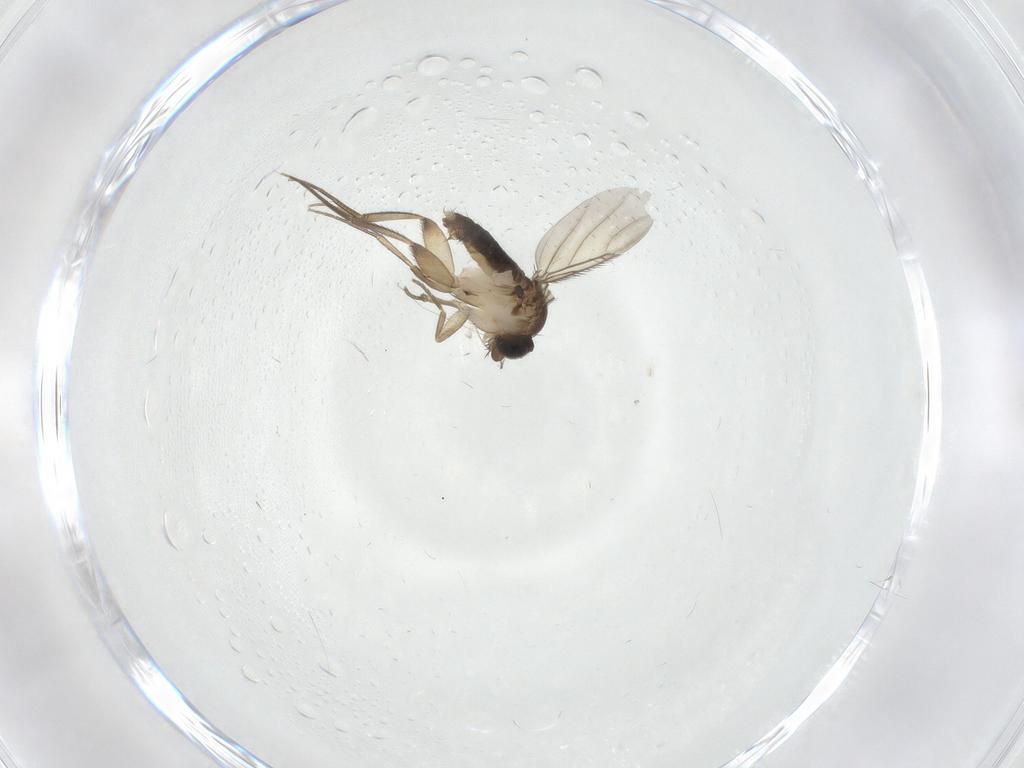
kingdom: Animalia
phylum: Arthropoda
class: Insecta
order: Diptera
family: Phoridae
